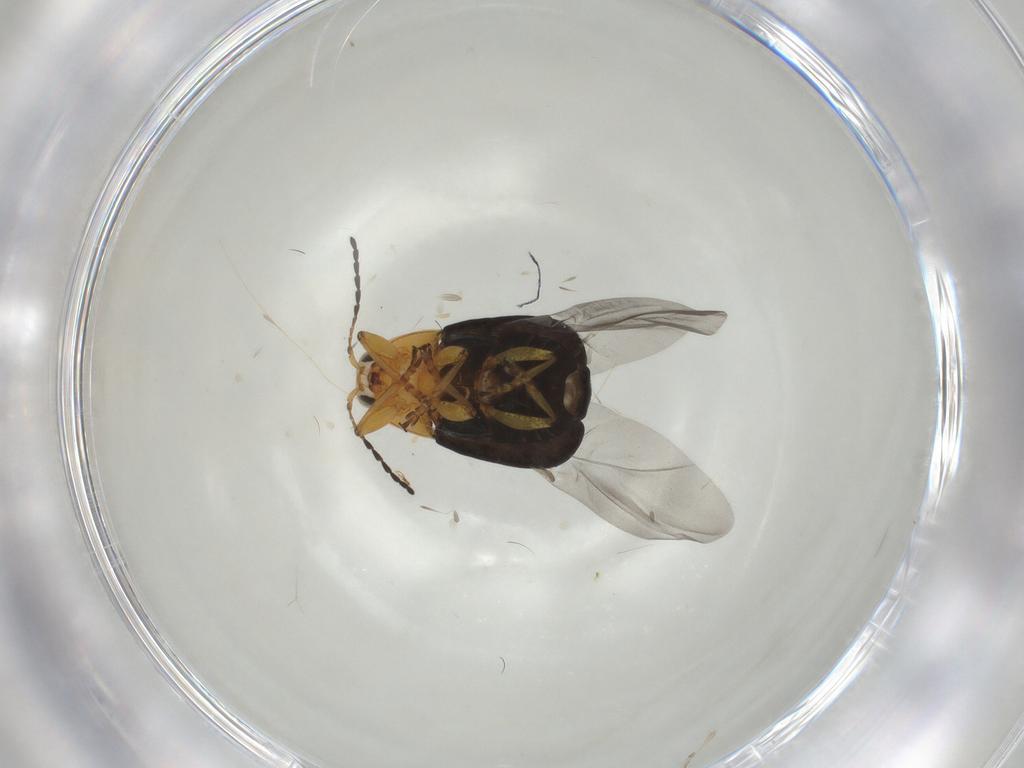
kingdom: Animalia
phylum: Arthropoda
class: Insecta
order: Coleoptera
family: Chrysomelidae
